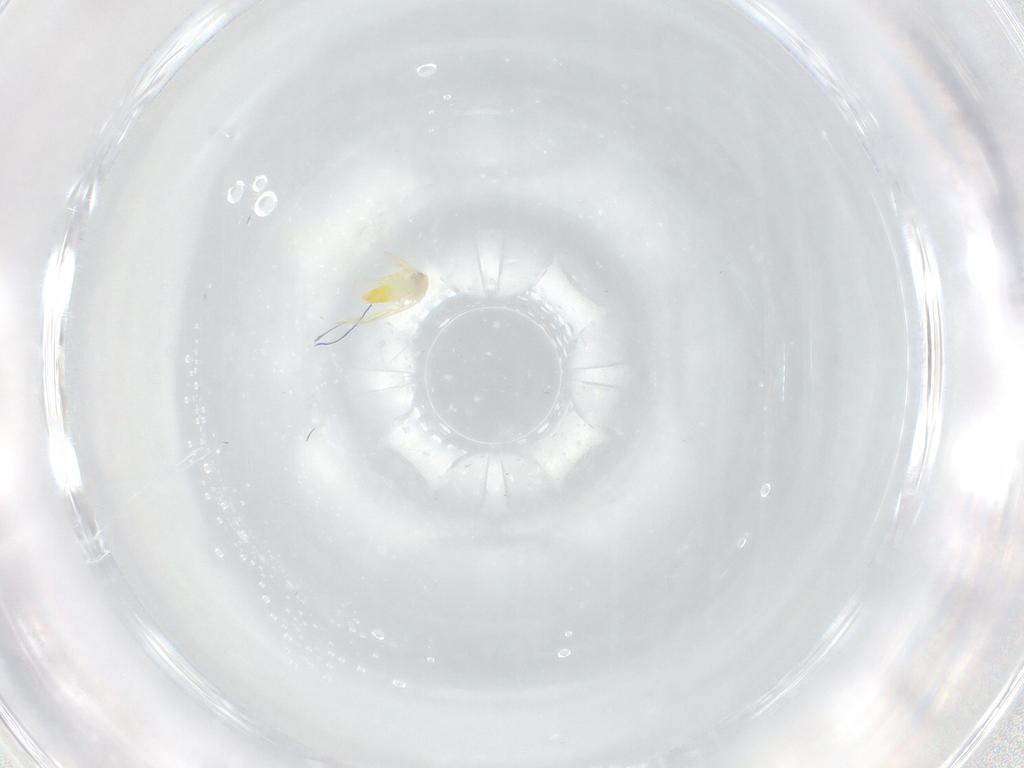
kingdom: Animalia
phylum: Arthropoda
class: Insecta
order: Hemiptera
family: Aleyrodidae
